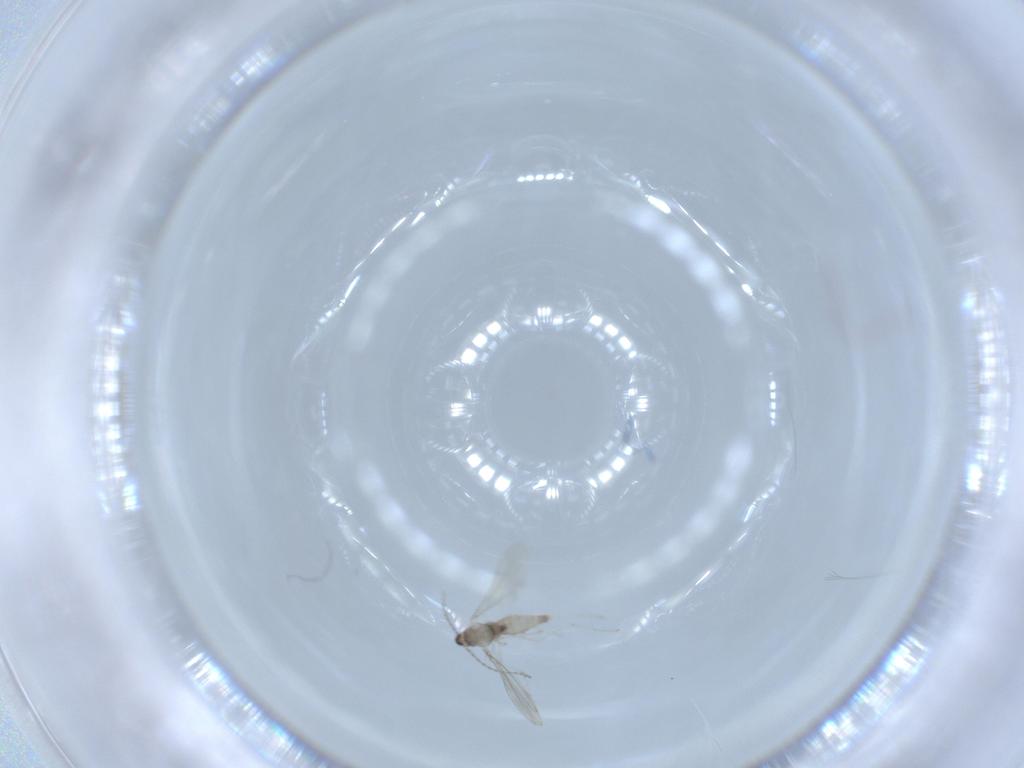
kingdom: Animalia
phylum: Arthropoda
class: Insecta
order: Diptera
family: Cecidomyiidae
